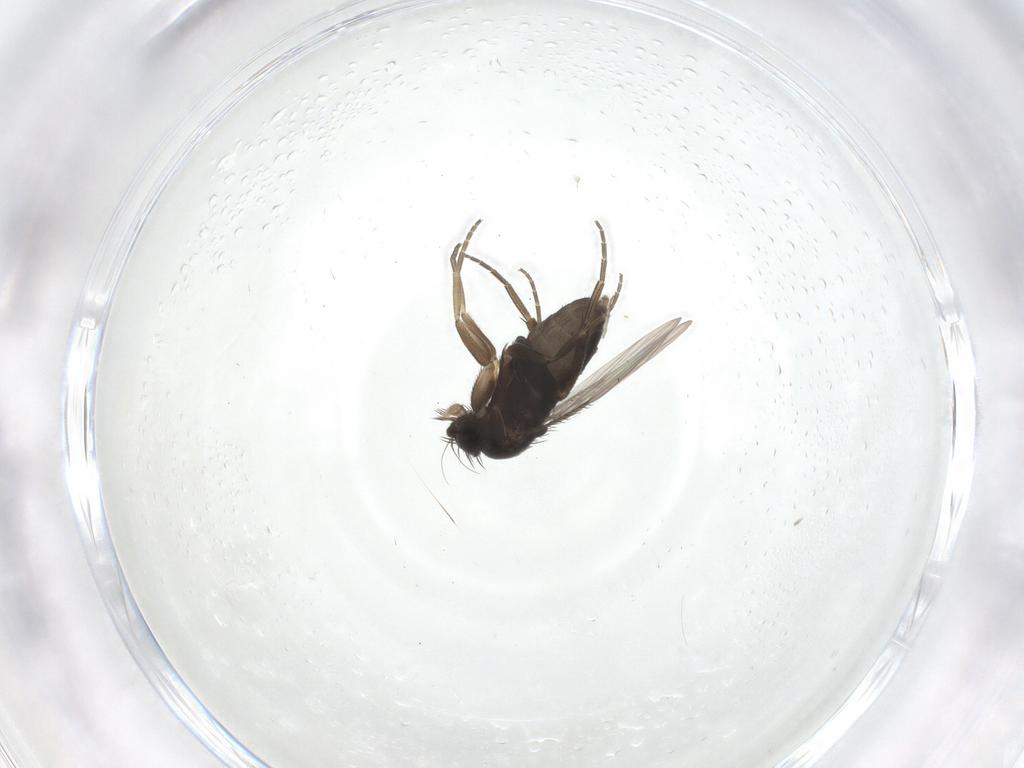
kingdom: Animalia
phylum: Arthropoda
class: Insecta
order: Diptera
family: Phoridae
